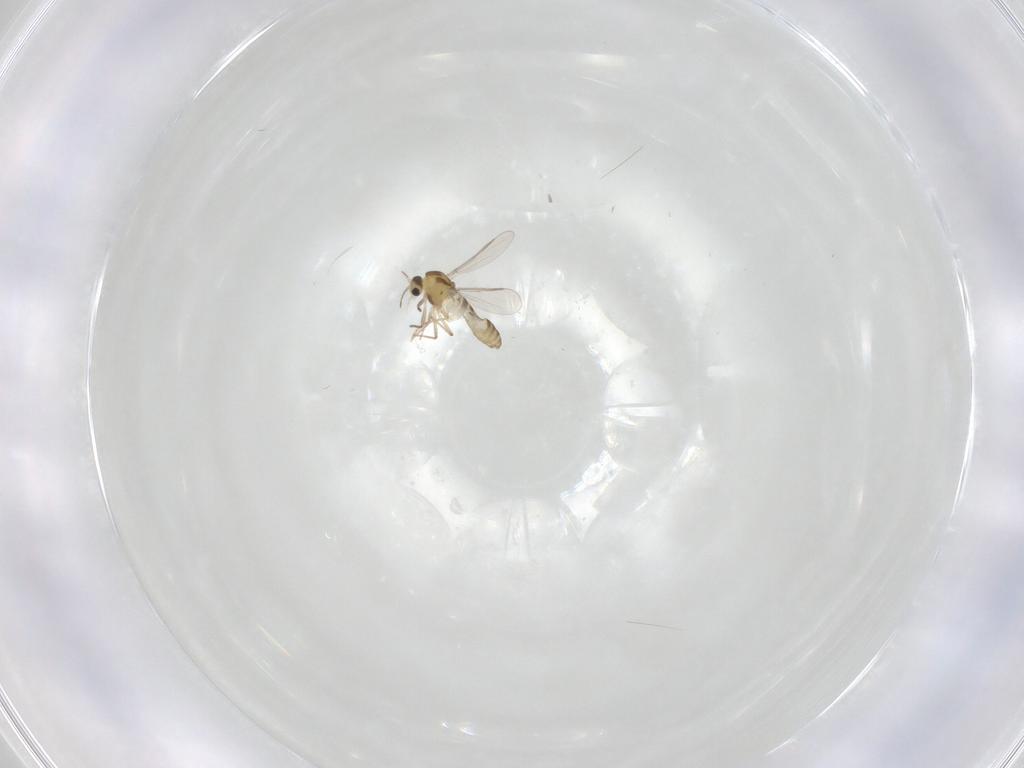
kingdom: Animalia
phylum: Arthropoda
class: Insecta
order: Diptera
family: Chironomidae
